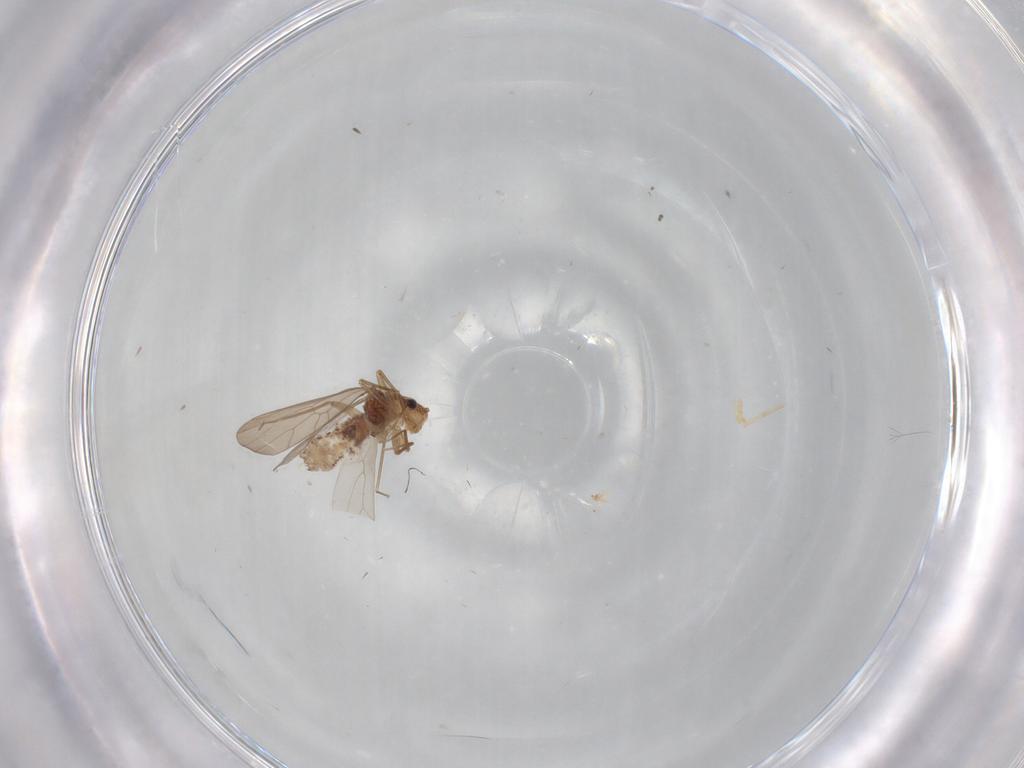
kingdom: Animalia
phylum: Arthropoda
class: Insecta
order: Psocodea
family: Lepidopsocidae
